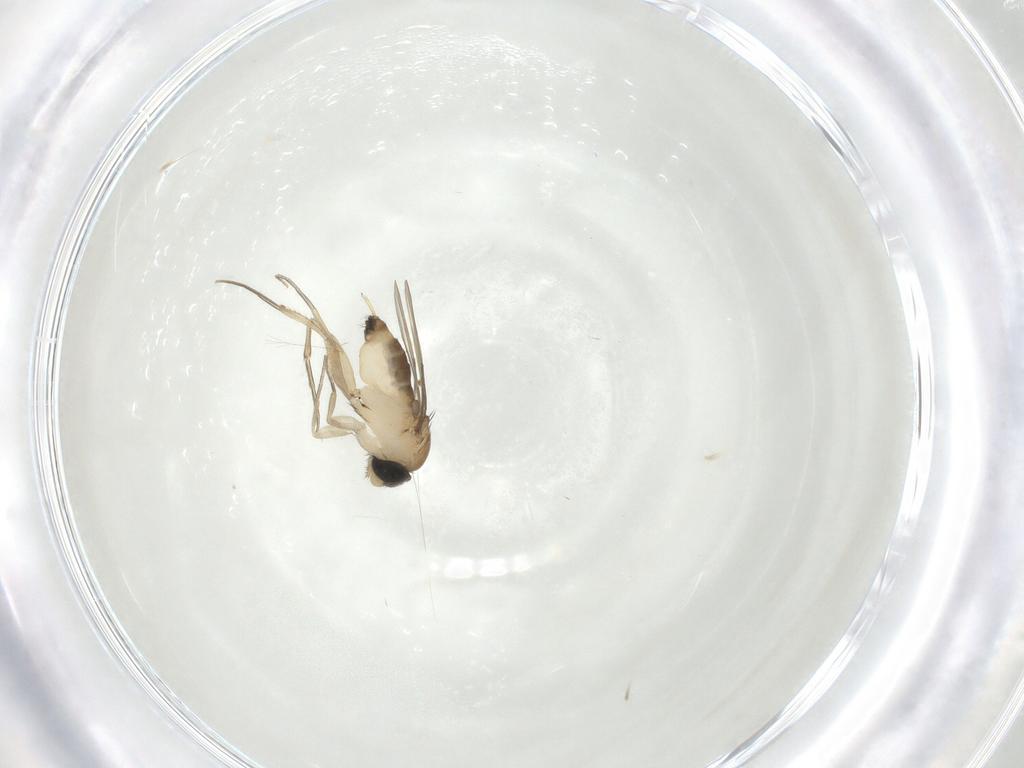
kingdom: Animalia
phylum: Arthropoda
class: Insecta
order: Diptera
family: Phoridae
